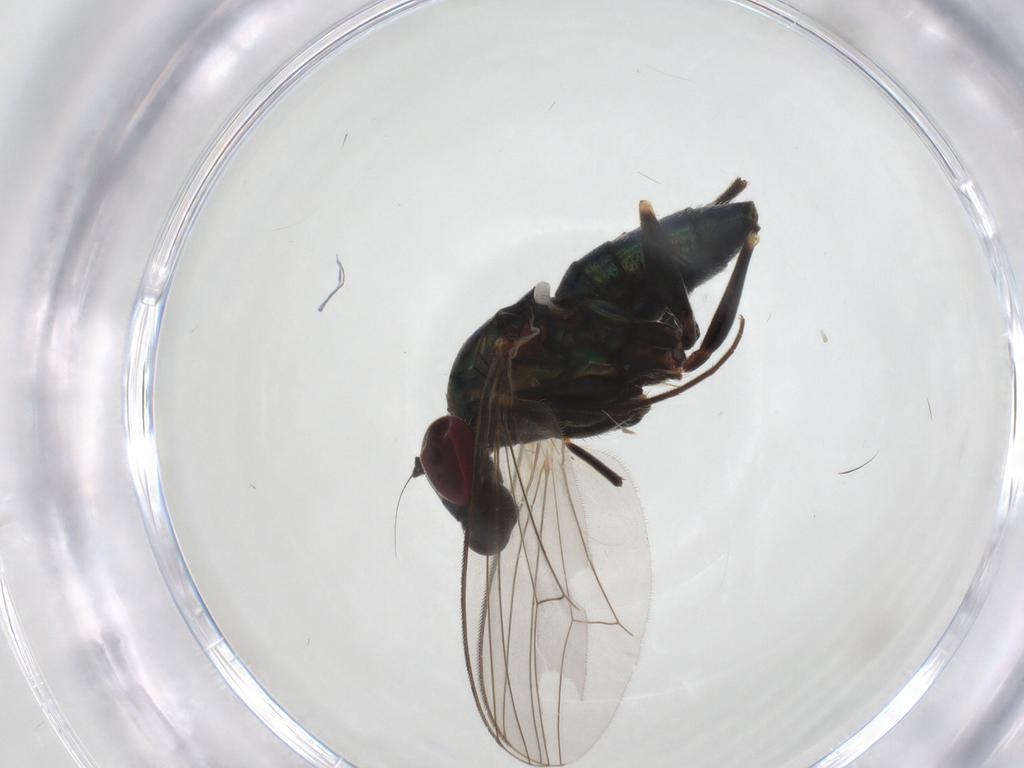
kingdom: Animalia
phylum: Arthropoda
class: Insecta
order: Diptera
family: Dolichopodidae
